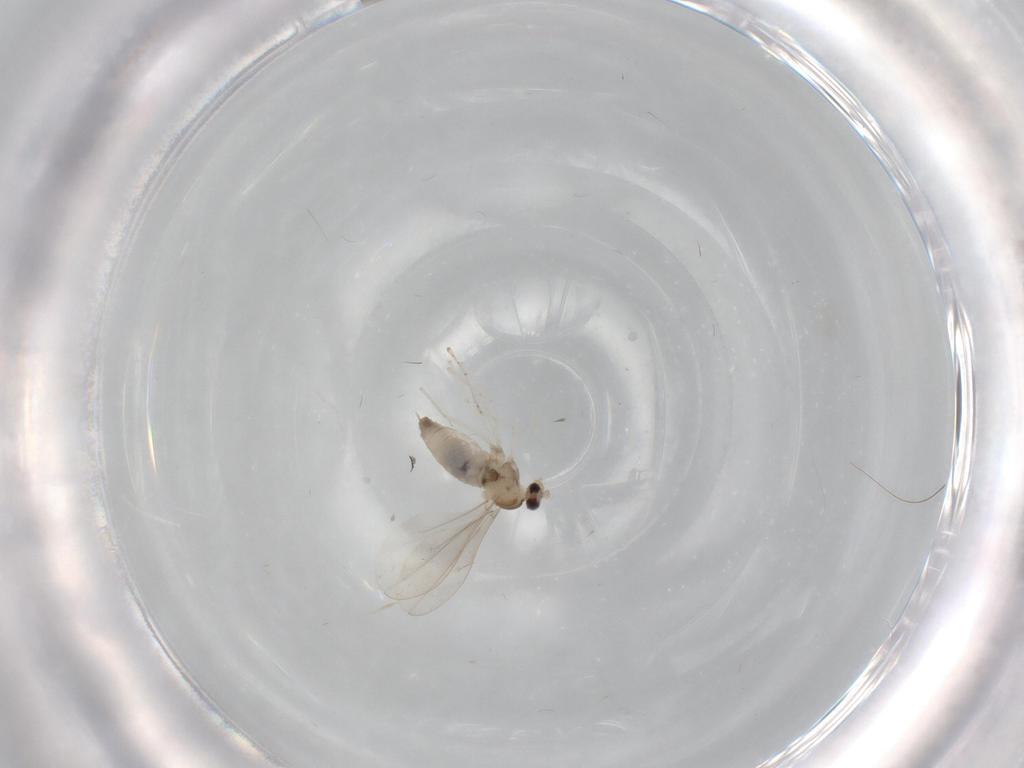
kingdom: Animalia
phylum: Arthropoda
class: Insecta
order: Diptera
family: Cecidomyiidae
